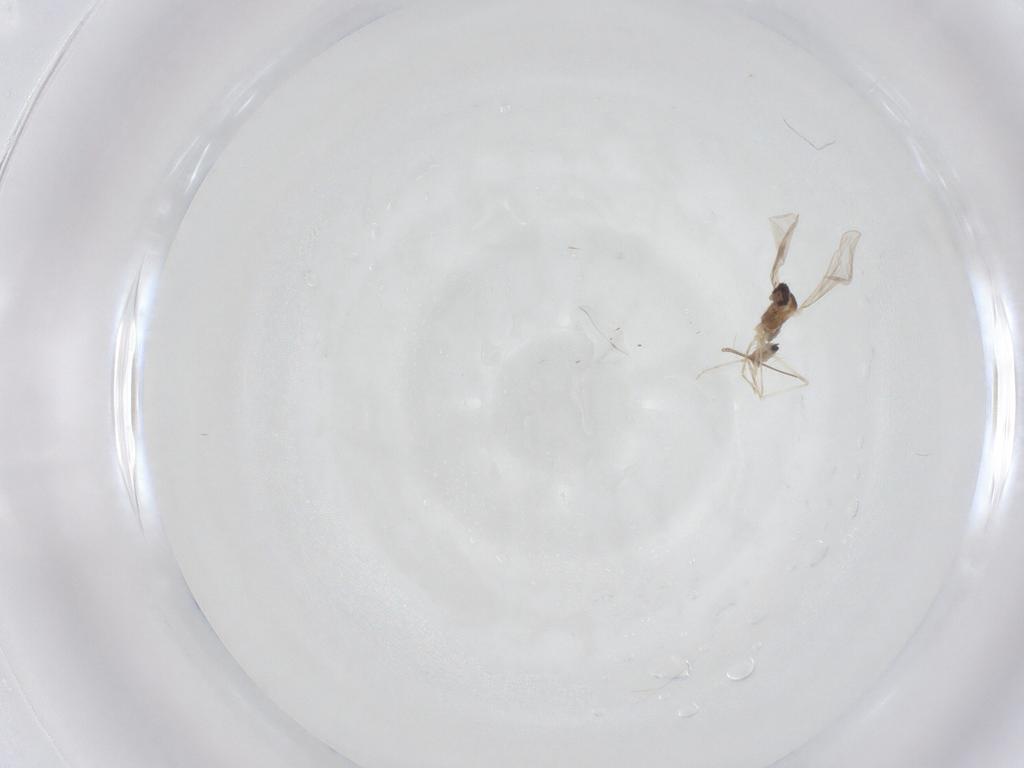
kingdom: Animalia
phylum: Arthropoda
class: Insecta
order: Diptera
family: Cecidomyiidae
